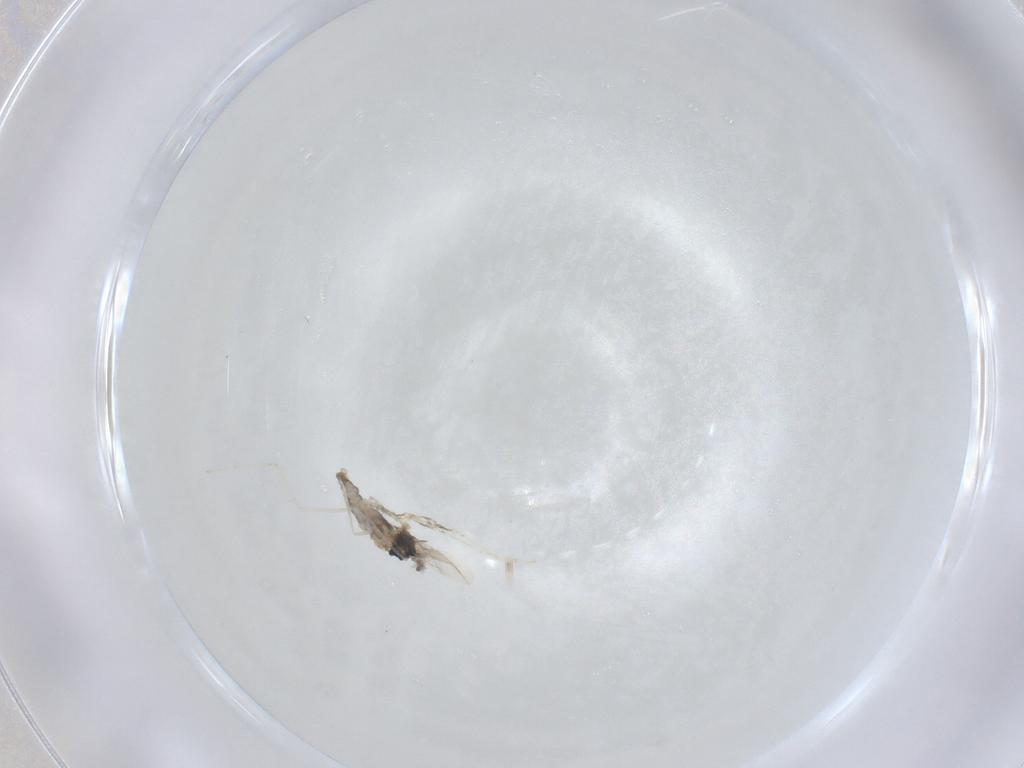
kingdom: Animalia
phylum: Arthropoda
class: Insecta
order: Diptera
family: Cecidomyiidae
